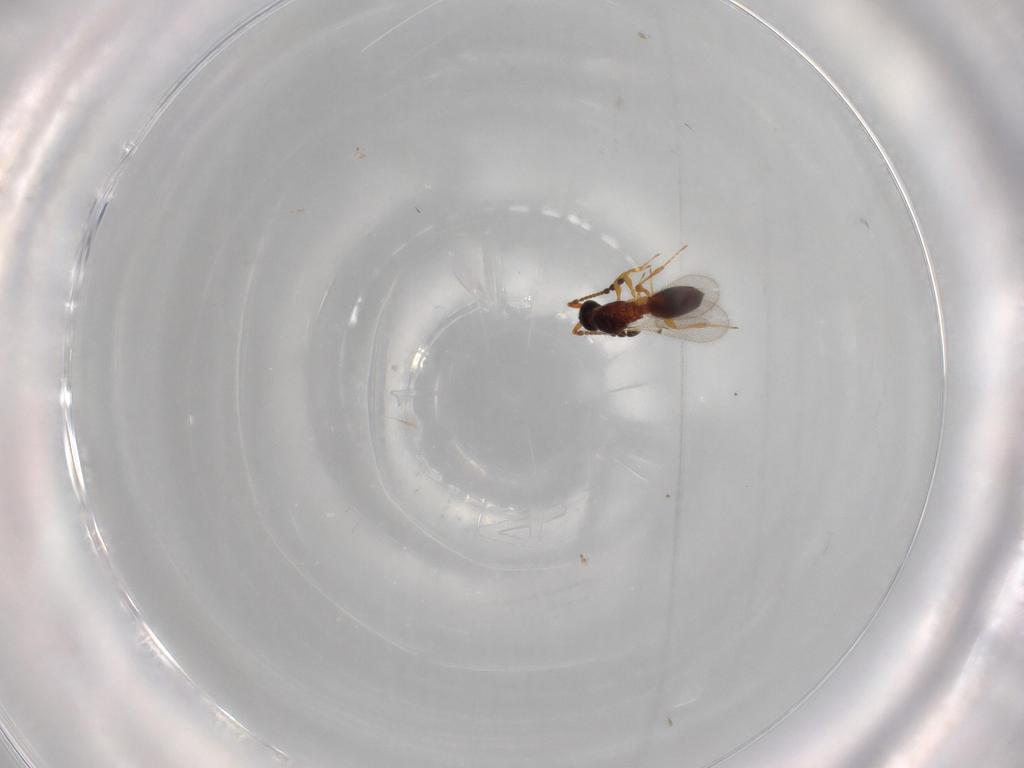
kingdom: Animalia
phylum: Arthropoda
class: Insecta
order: Hymenoptera
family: Diapriidae
